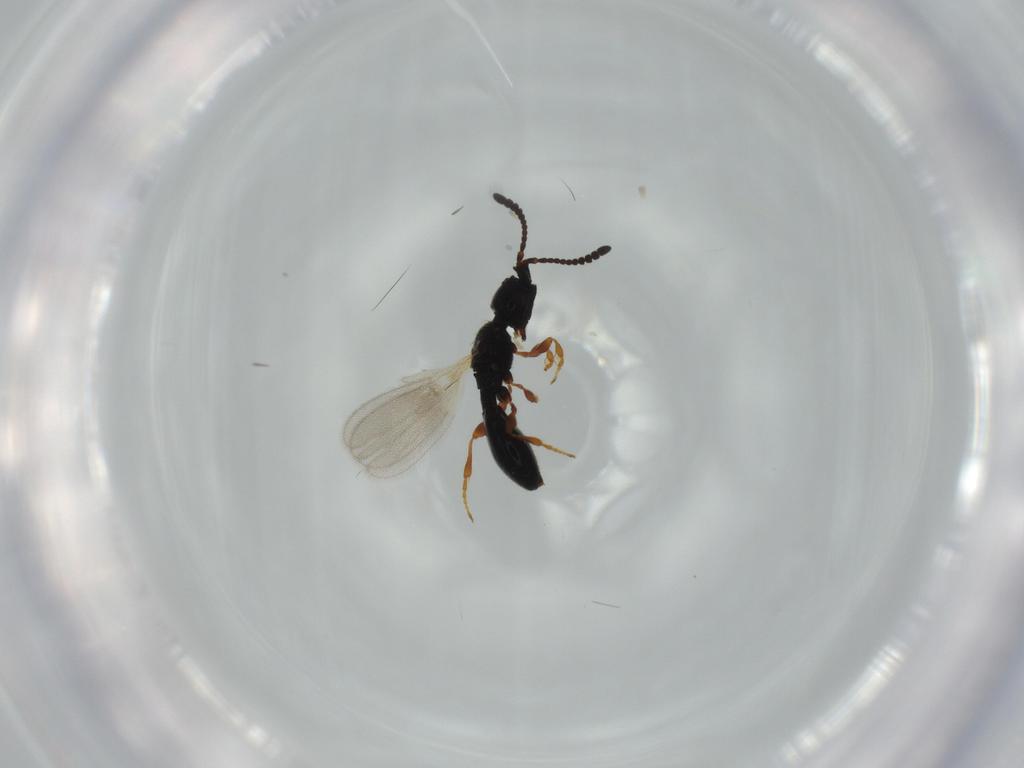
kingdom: Animalia
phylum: Arthropoda
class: Insecta
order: Hymenoptera
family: Diapriidae
